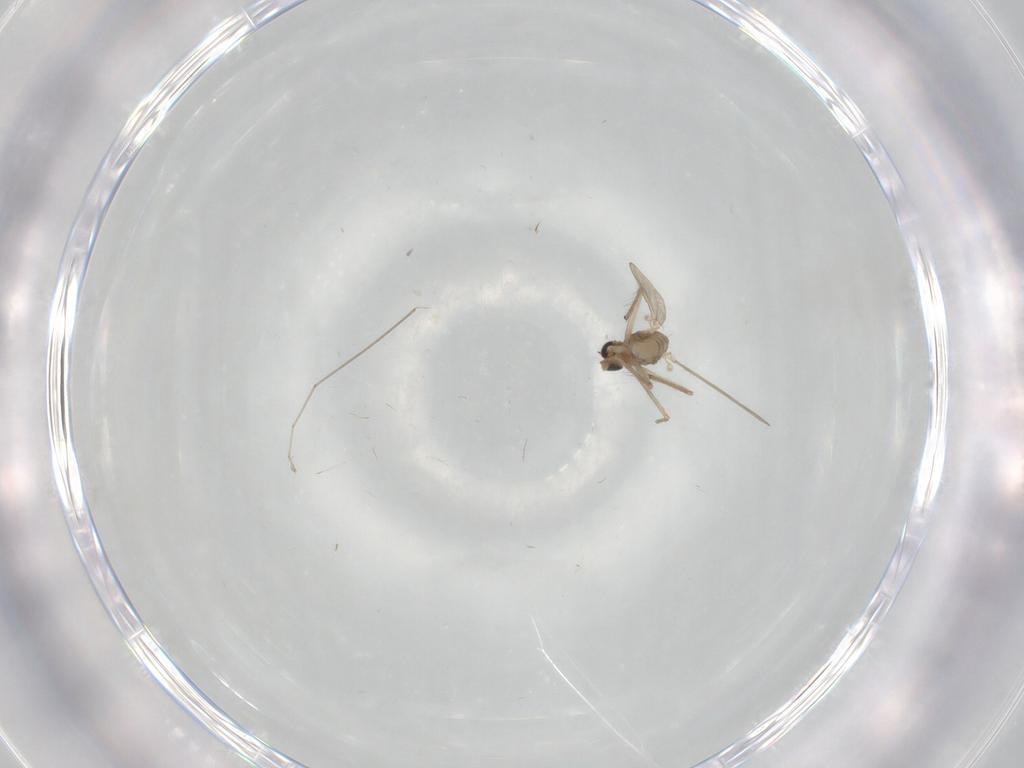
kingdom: Animalia
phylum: Arthropoda
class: Insecta
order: Diptera
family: Chironomidae
